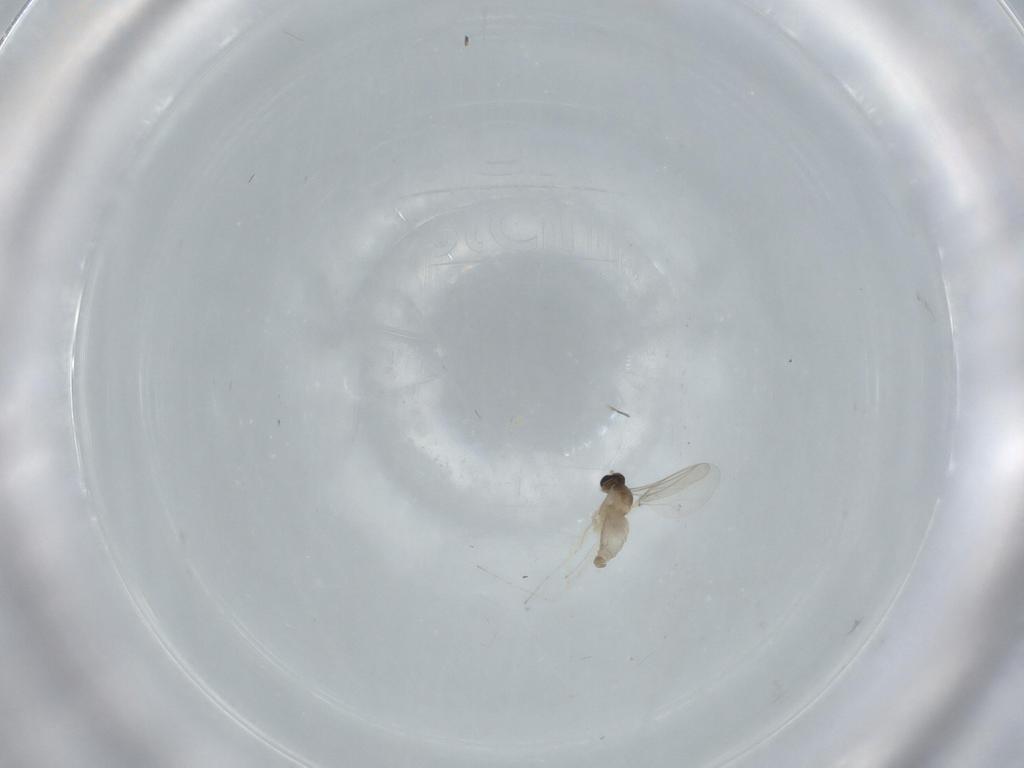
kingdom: Animalia
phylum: Arthropoda
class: Insecta
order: Diptera
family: Cecidomyiidae
